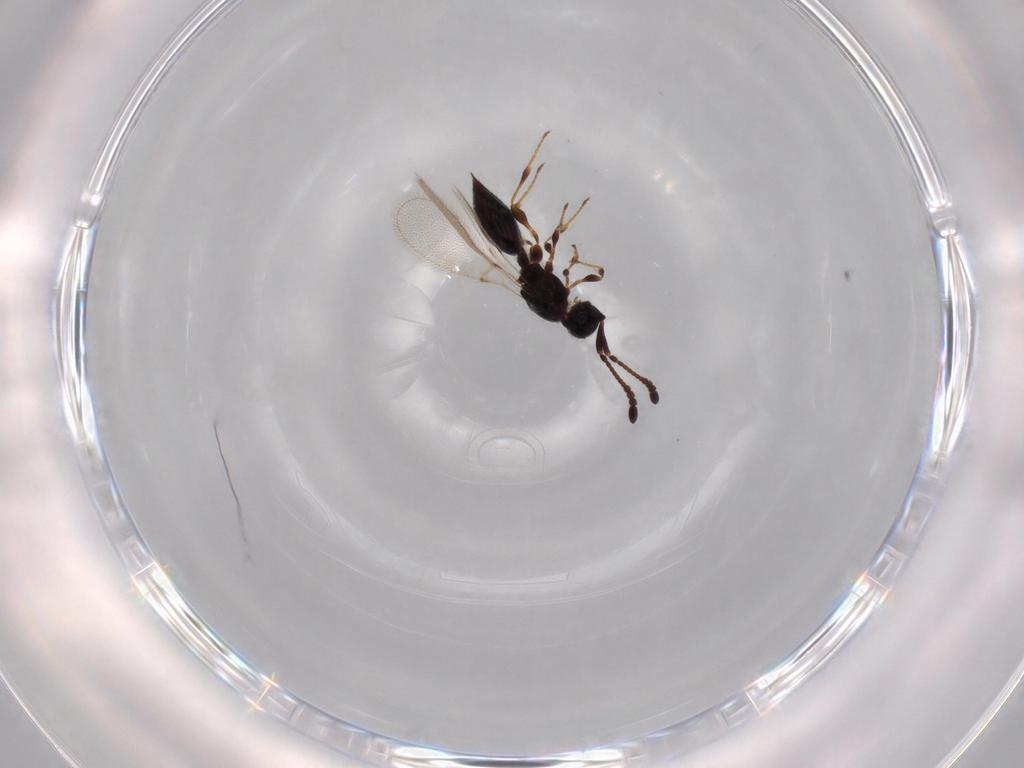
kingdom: Animalia
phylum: Arthropoda
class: Insecta
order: Hymenoptera
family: Diapriidae
